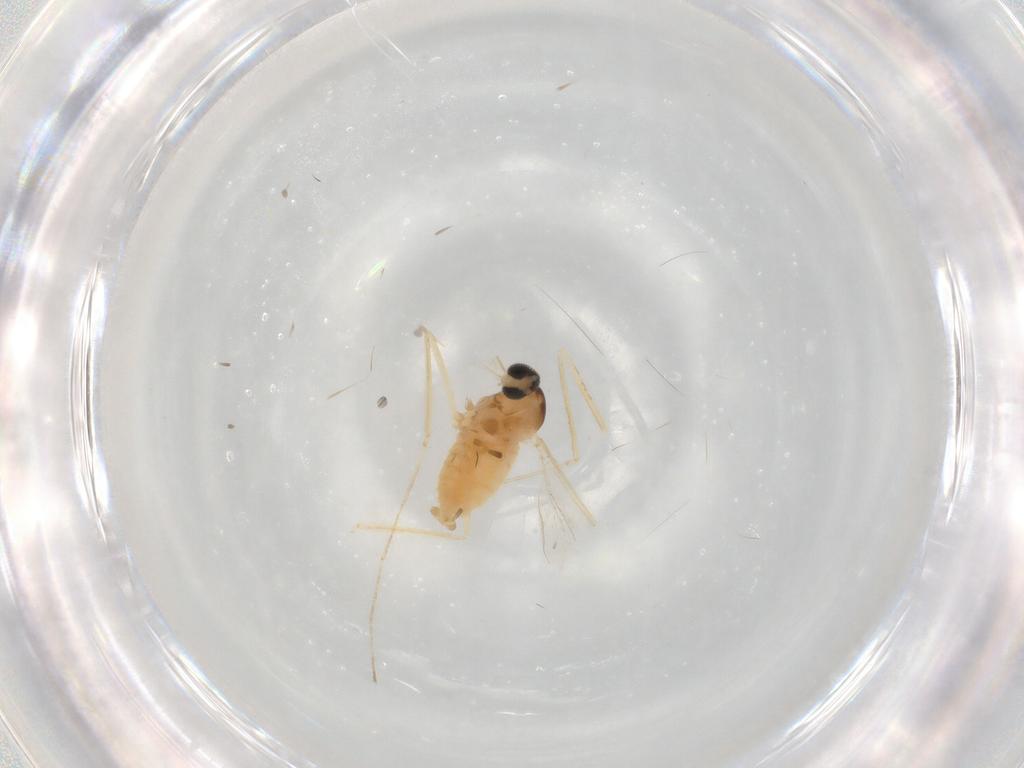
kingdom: Animalia
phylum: Arthropoda
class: Insecta
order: Diptera
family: Cecidomyiidae
